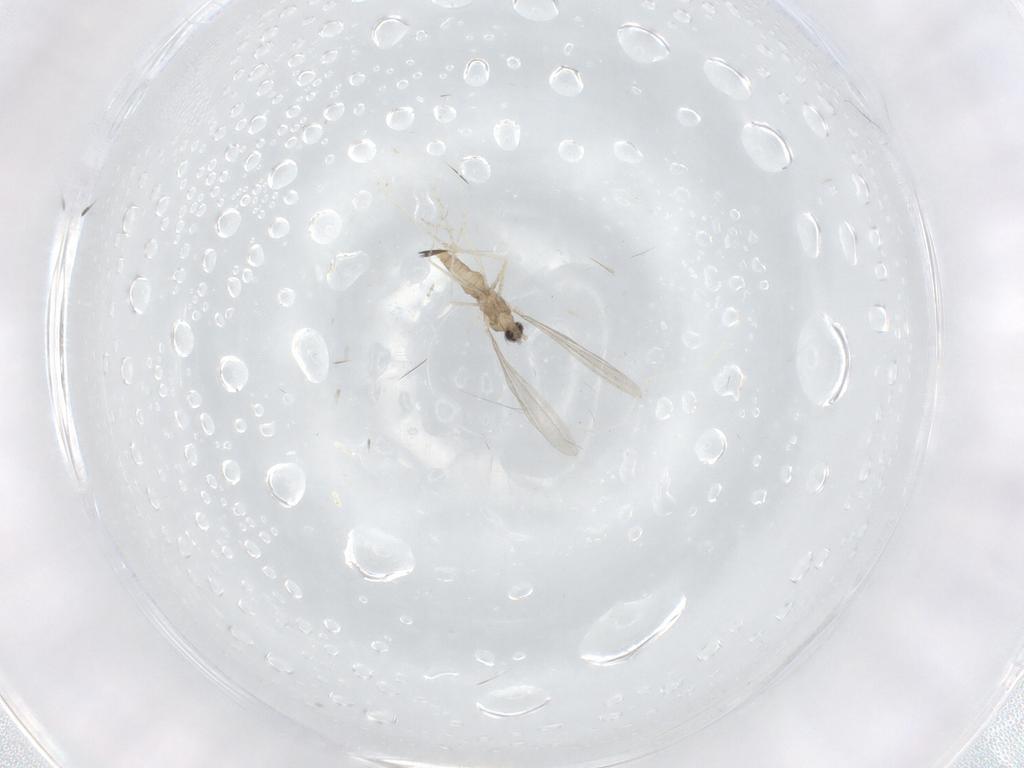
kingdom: Animalia
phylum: Arthropoda
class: Insecta
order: Diptera
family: Cecidomyiidae
